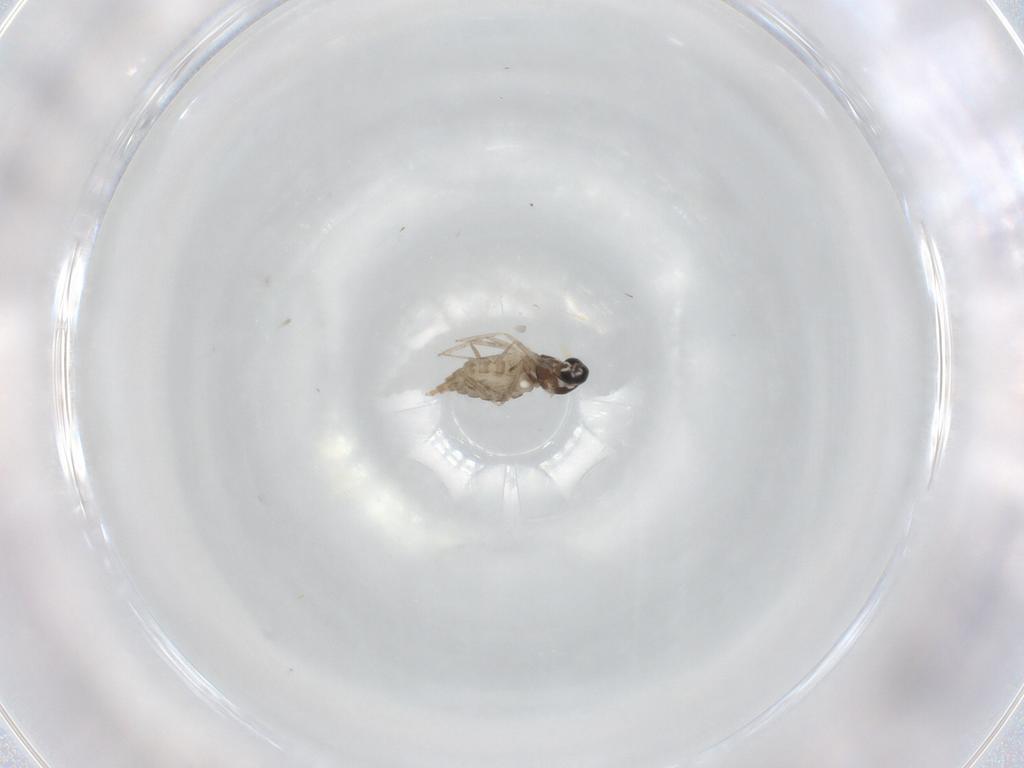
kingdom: Animalia
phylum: Arthropoda
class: Insecta
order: Diptera
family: Cecidomyiidae
